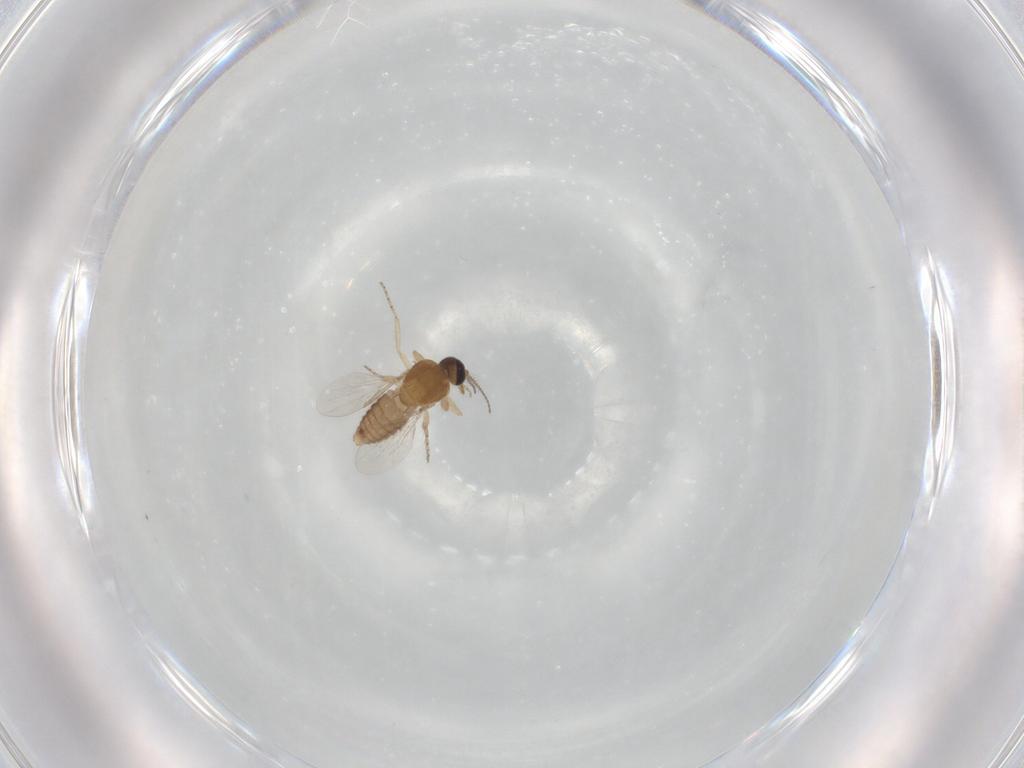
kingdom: Animalia
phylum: Arthropoda
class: Insecta
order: Diptera
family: Ceratopogonidae
